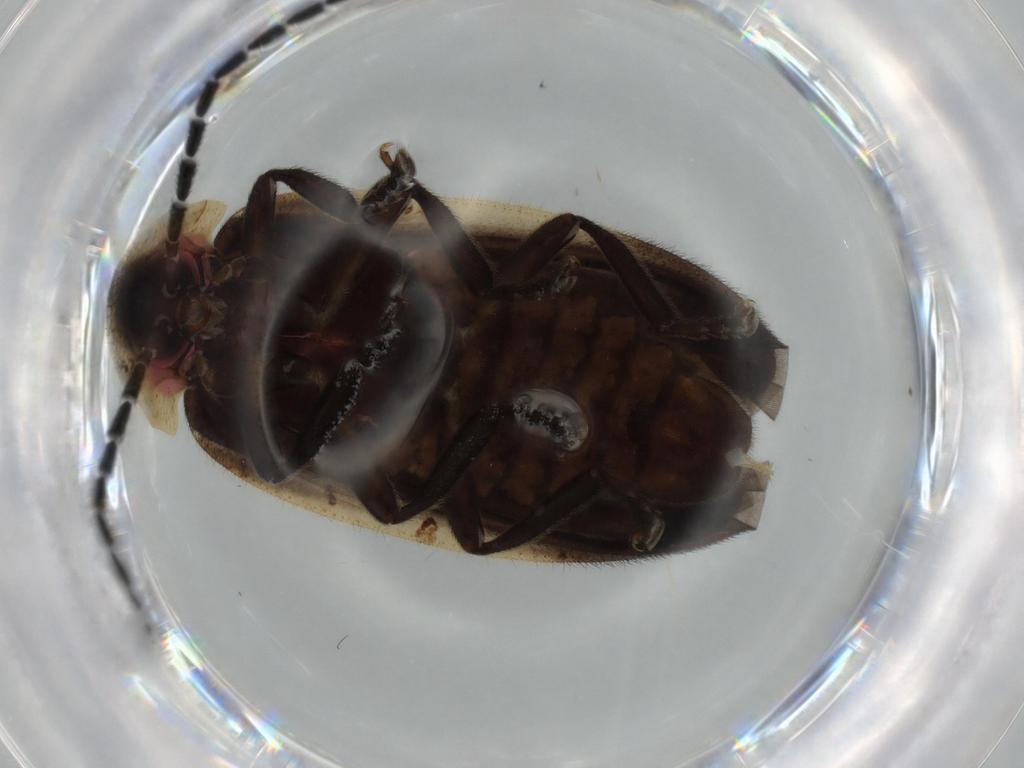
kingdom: Animalia
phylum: Arthropoda
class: Insecta
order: Coleoptera
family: Lampyridae
